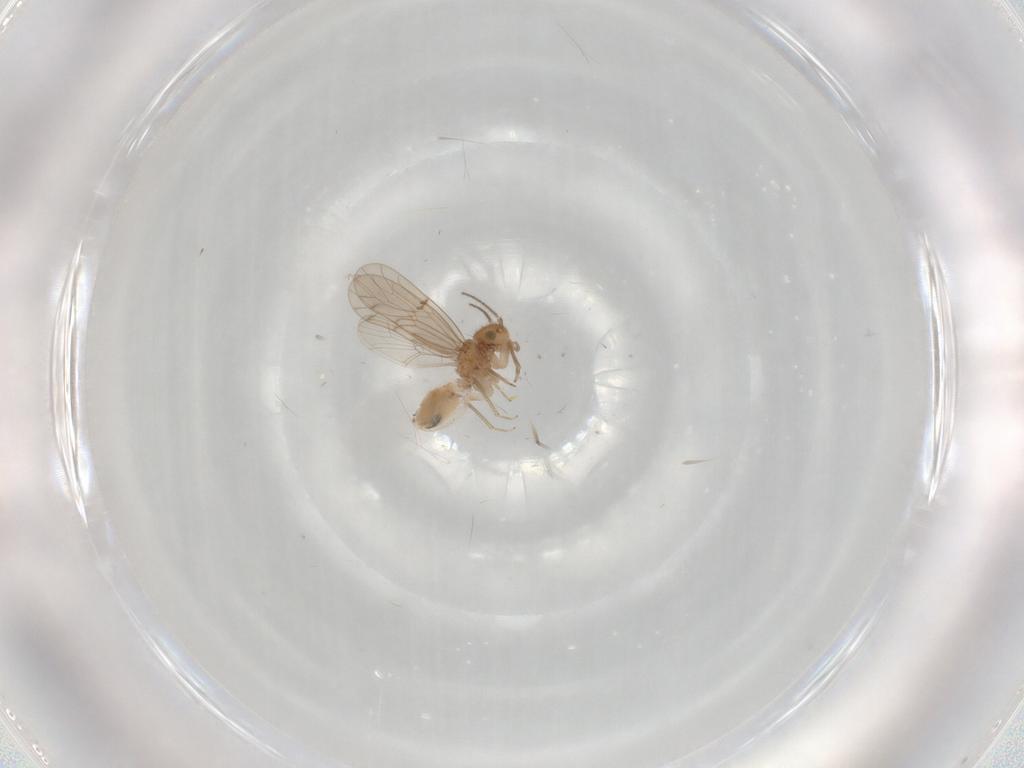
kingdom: Animalia
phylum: Arthropoda
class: Insecta
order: Psocodea
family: Ectopsocidae
